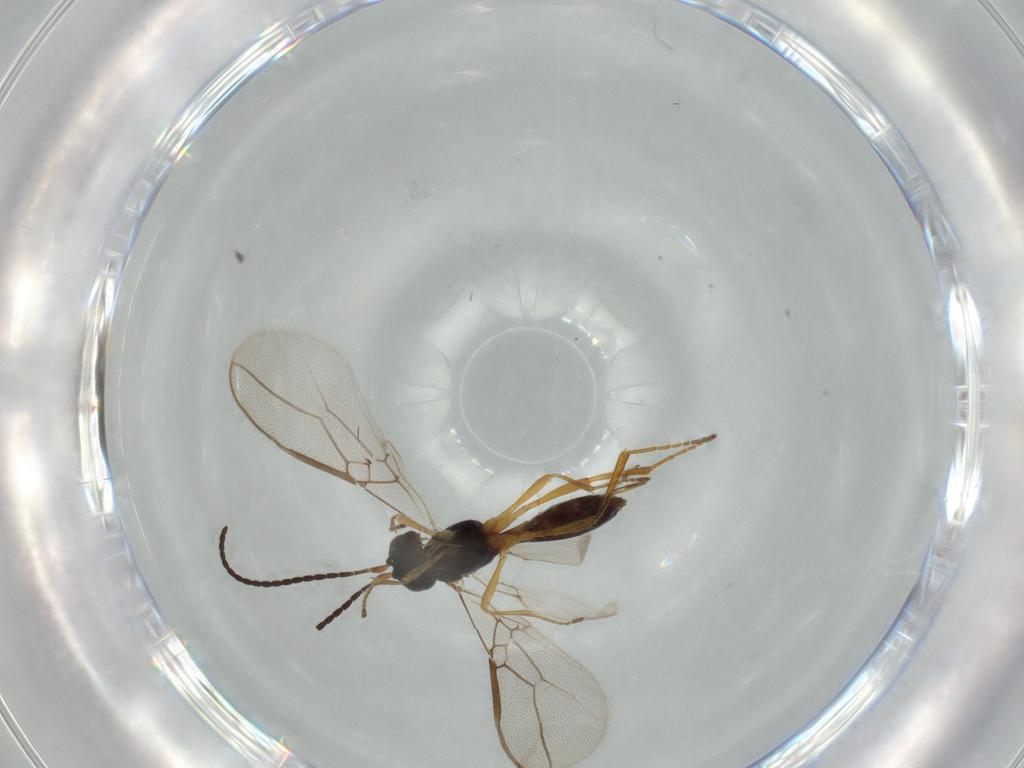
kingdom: Animalia
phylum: Arthropoda
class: Insecta
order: Hymenoptera
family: Braconidae
